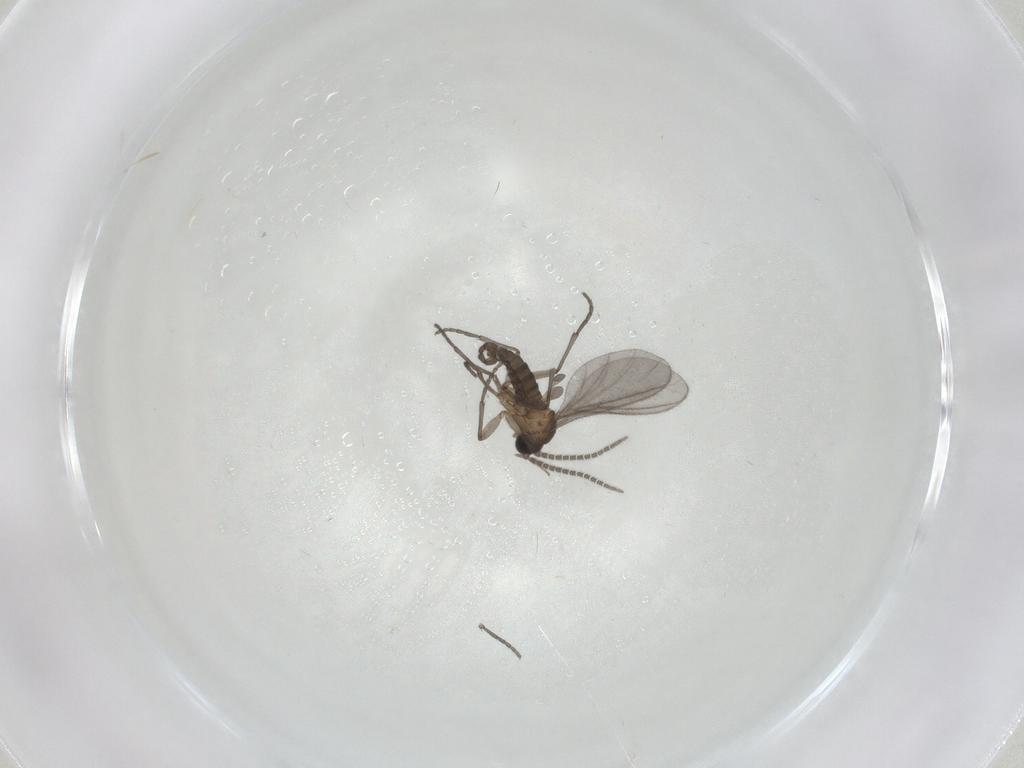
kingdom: Animalia
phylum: Arthropoda
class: Insecta
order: Diptera
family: Sciaridae
